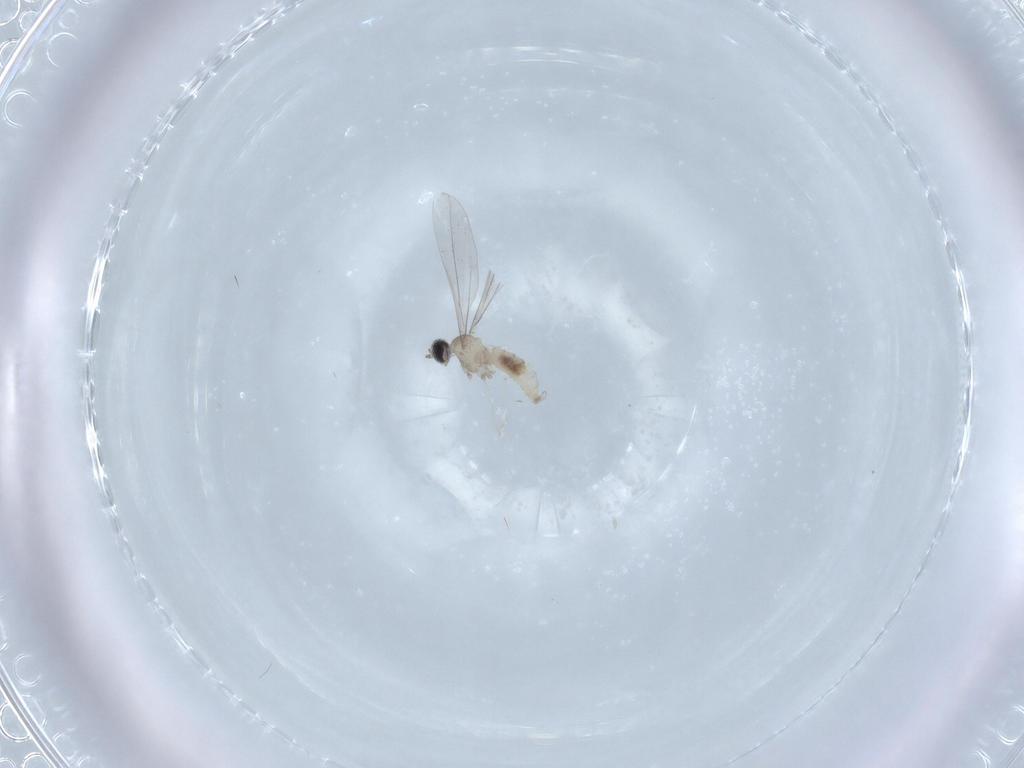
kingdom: Animalia
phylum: Arthropoda
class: Insecta
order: Diptera
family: Cecidomyiidae
